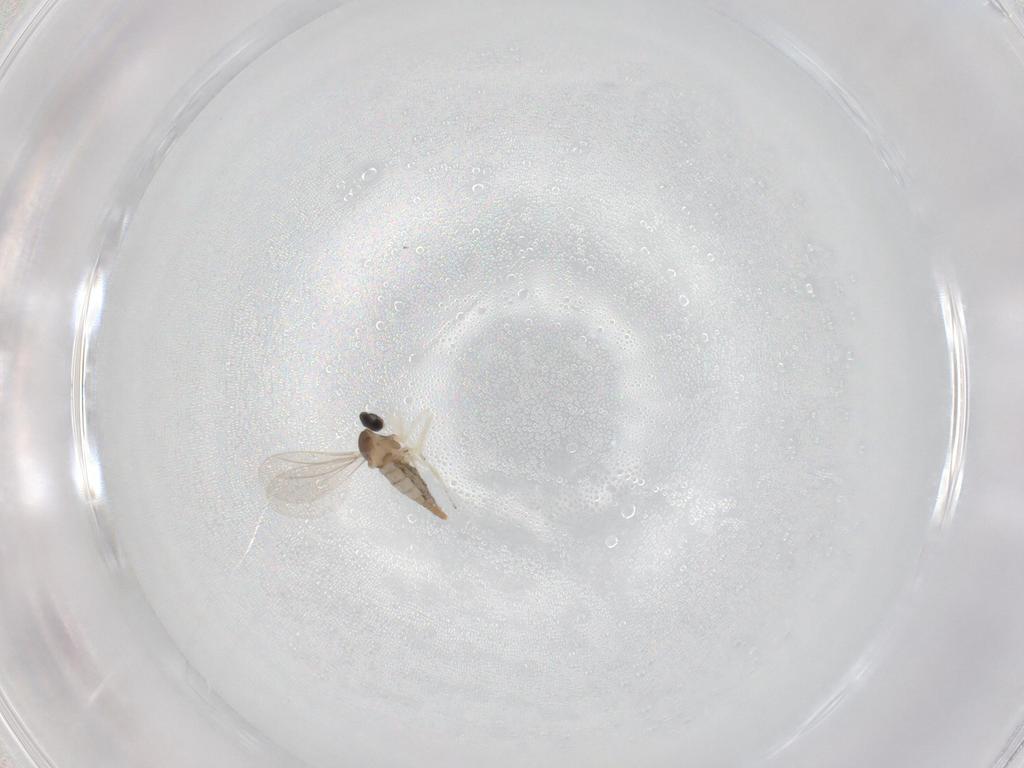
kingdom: Animalia
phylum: Arthropoda
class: Insecta
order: Diptera
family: Cecidomyiidae
